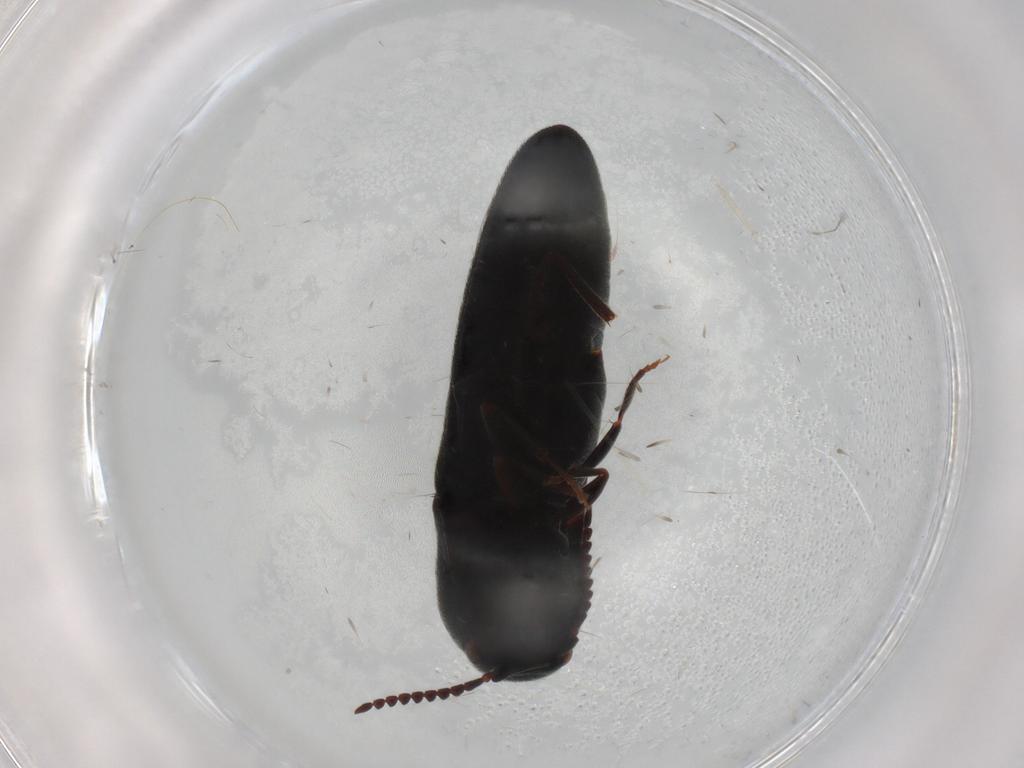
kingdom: Animalia
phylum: Arthropoda
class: Insecta
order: Coleoptera
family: Eucnemidae
